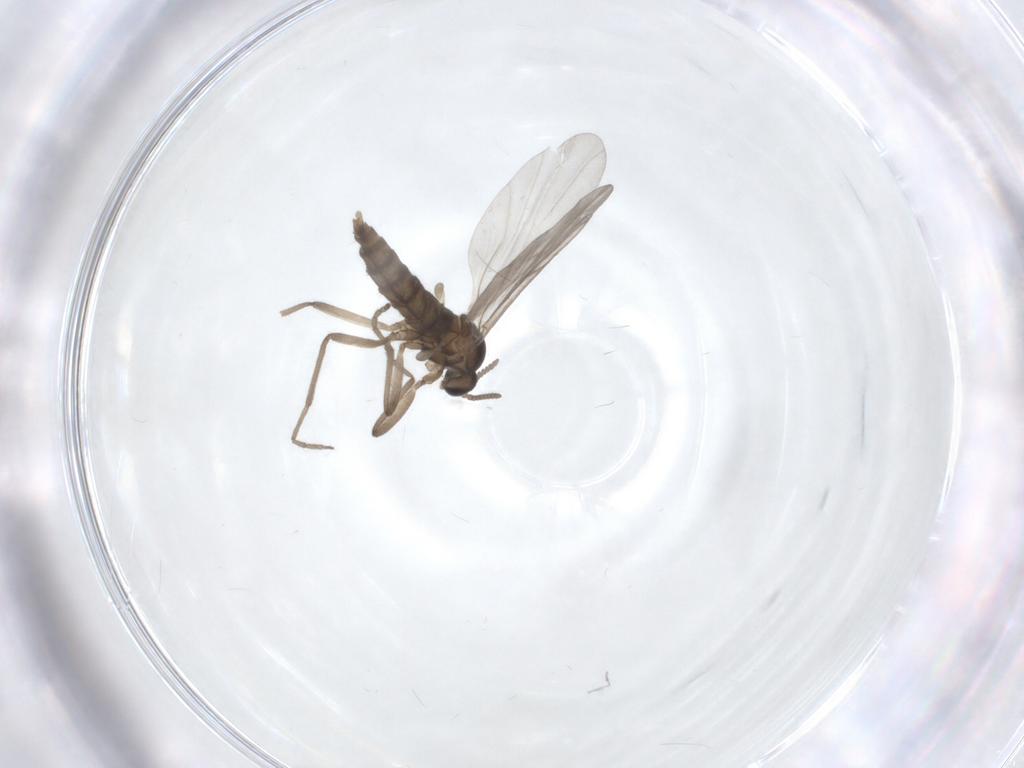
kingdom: Animalia
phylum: Arthropoda
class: Insecta
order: Diptera
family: Cecidomyiidae
